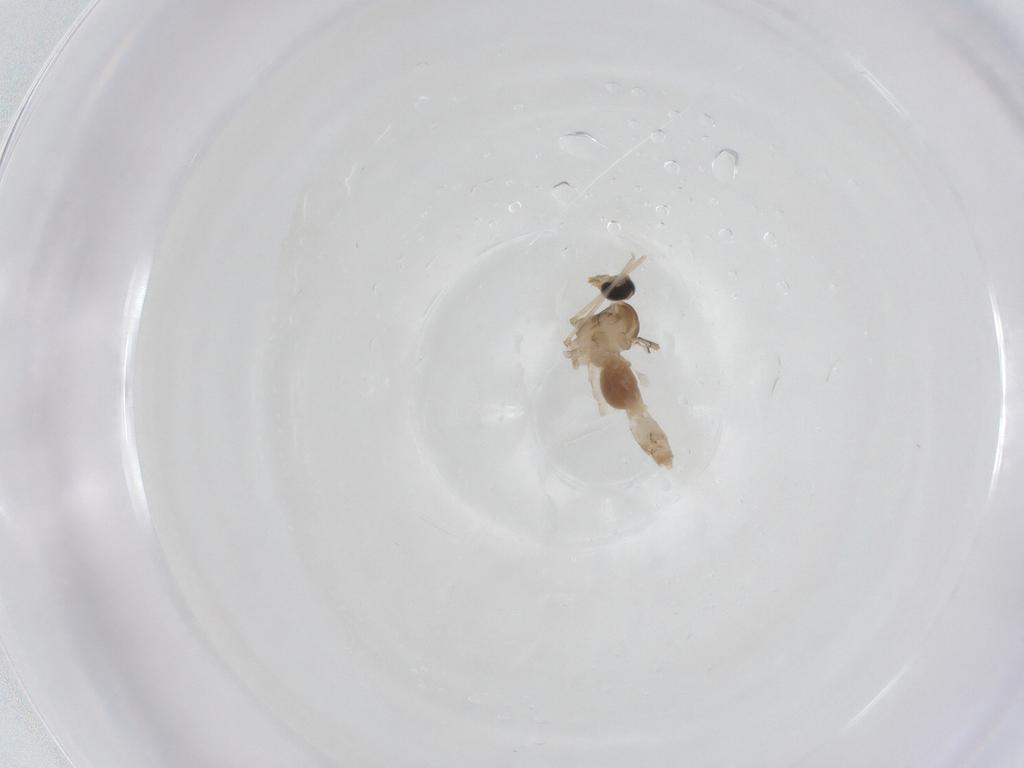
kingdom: Animalia
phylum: Arthropoda
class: Insecta
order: Diptera
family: Cecidomyiidae
